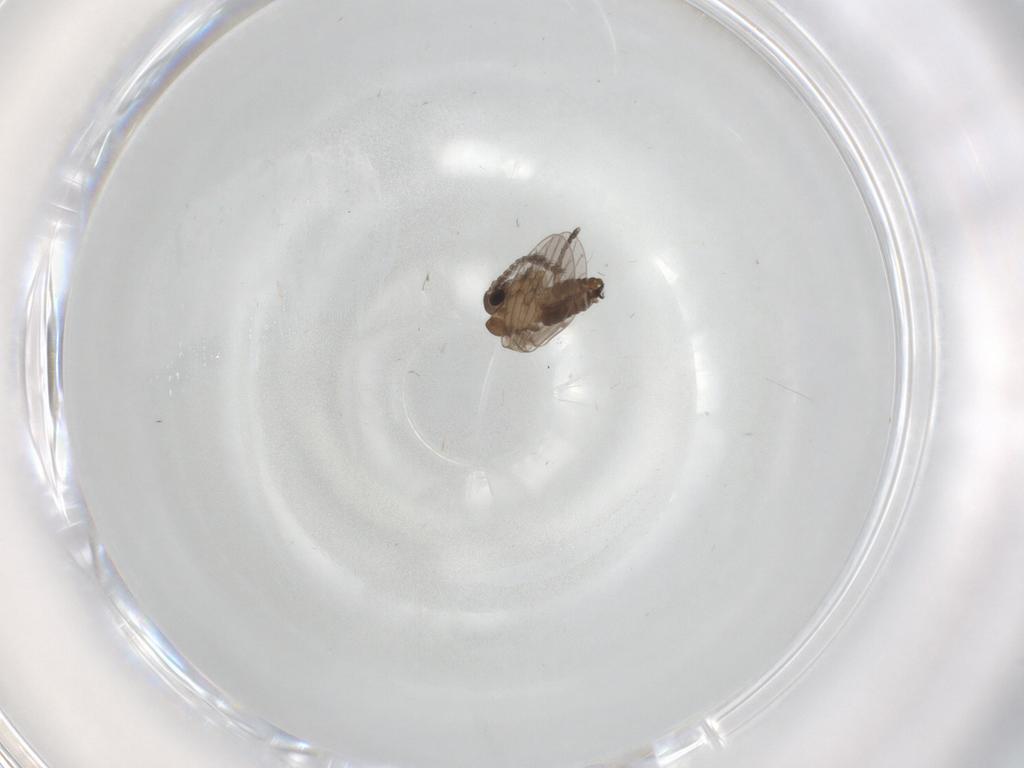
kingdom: Animalia
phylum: Arthropoda
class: Insecta
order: Diptera
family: Cecidomyiidae
